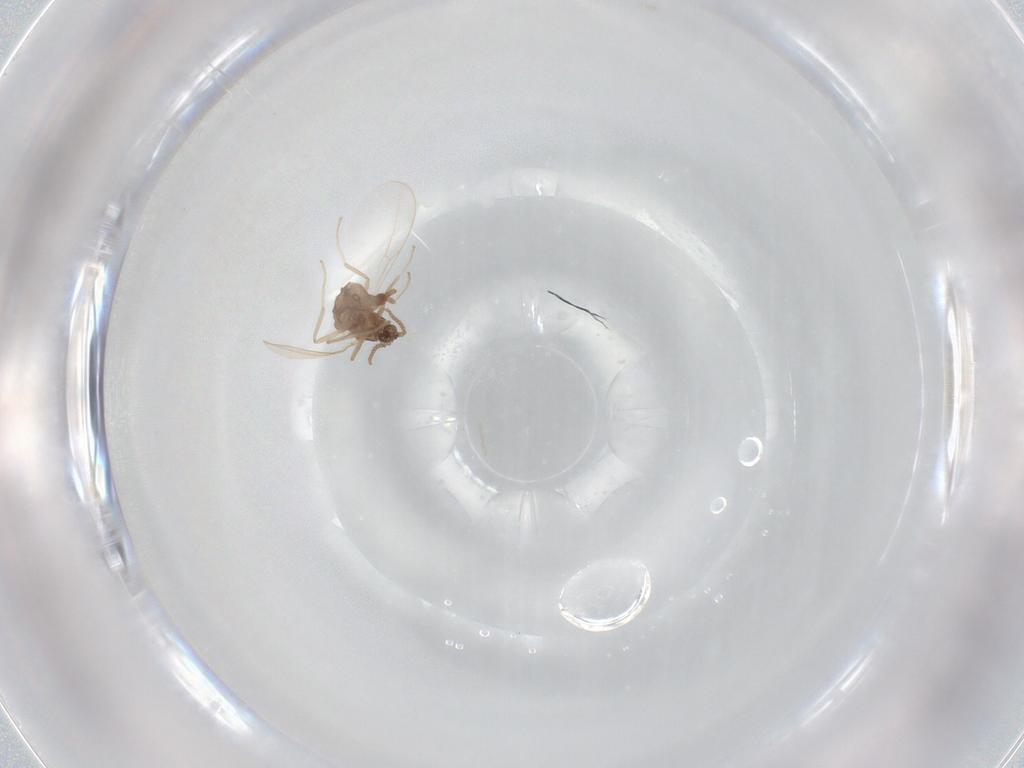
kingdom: Animalia
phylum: Arthropoda
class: Insecta
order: Diptera
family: Cecidomyiidae
